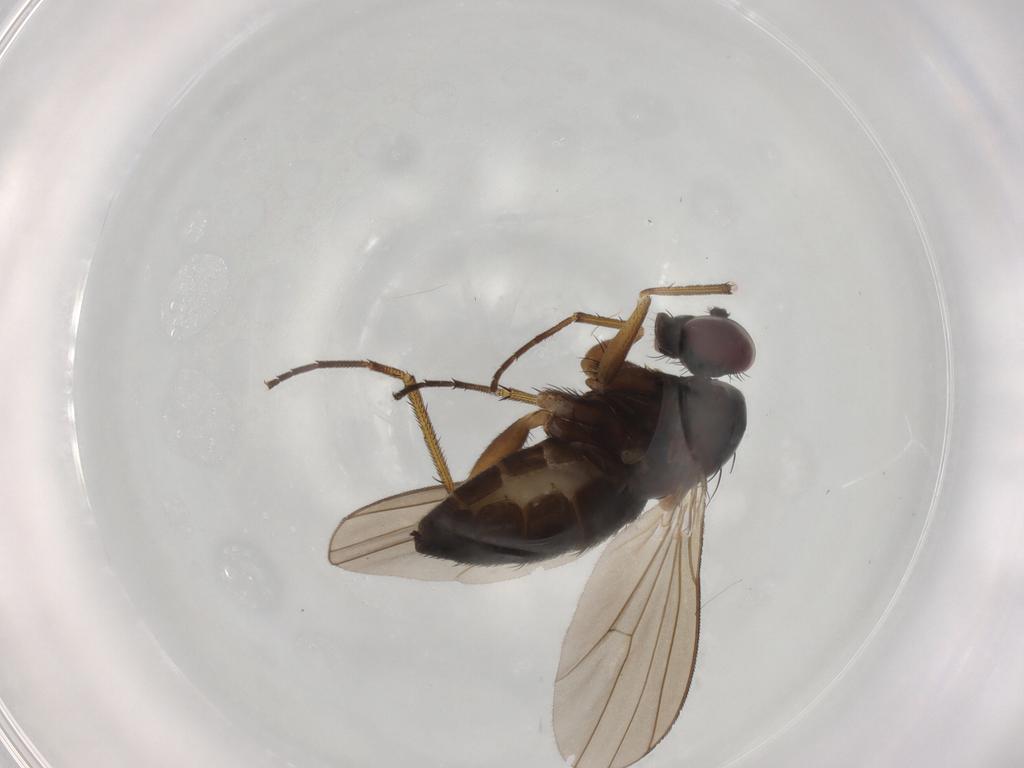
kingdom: Animalia
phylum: Arthropoda
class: Insecta
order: Diptera
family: Dolichopodidae
